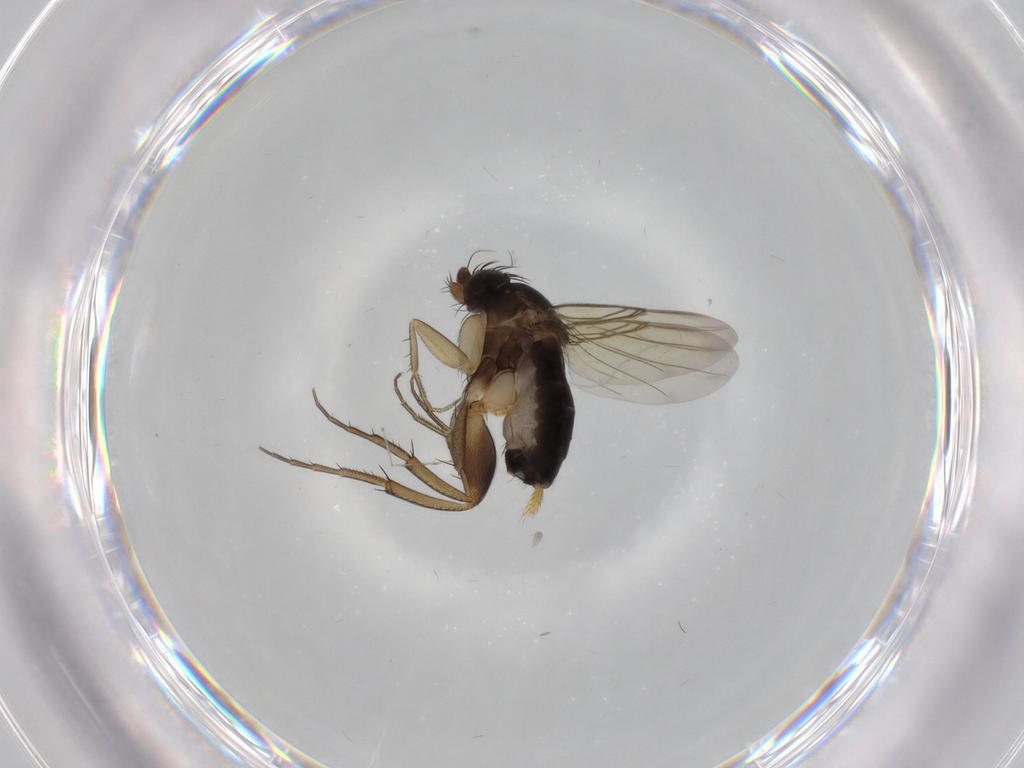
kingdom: Animalia
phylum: Arthropoda
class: Insecta
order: Diptera
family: Phoridae
